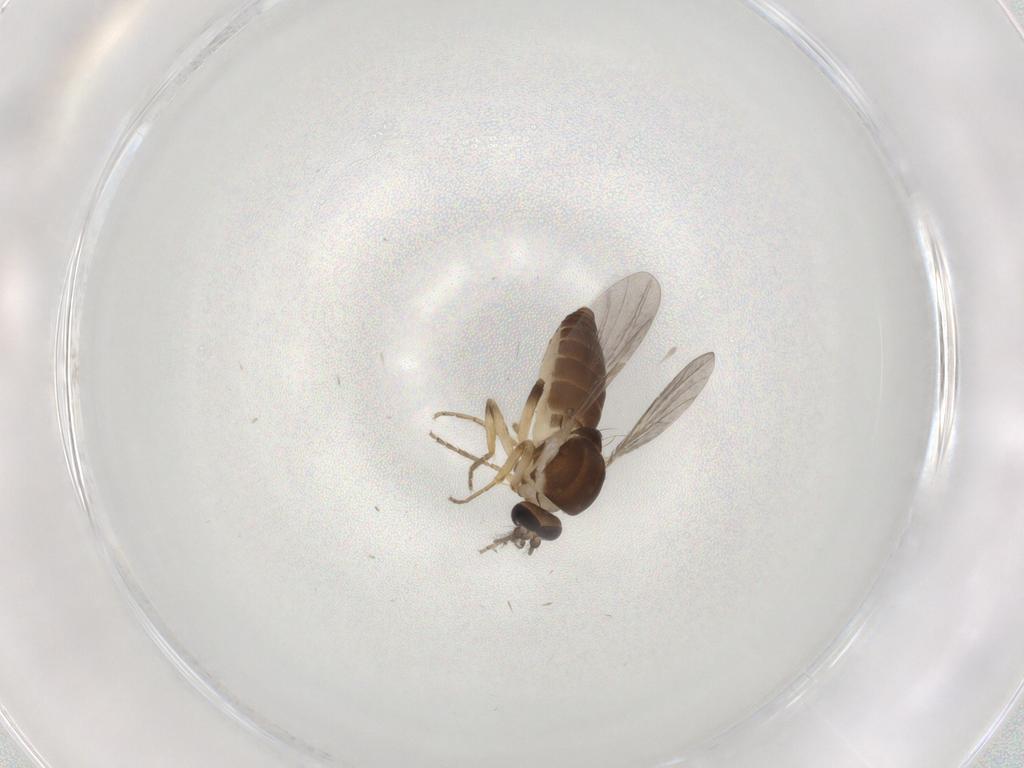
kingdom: Animalia
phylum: Arthropoda
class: Insecta
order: Diptera
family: Ceratopogonidae
